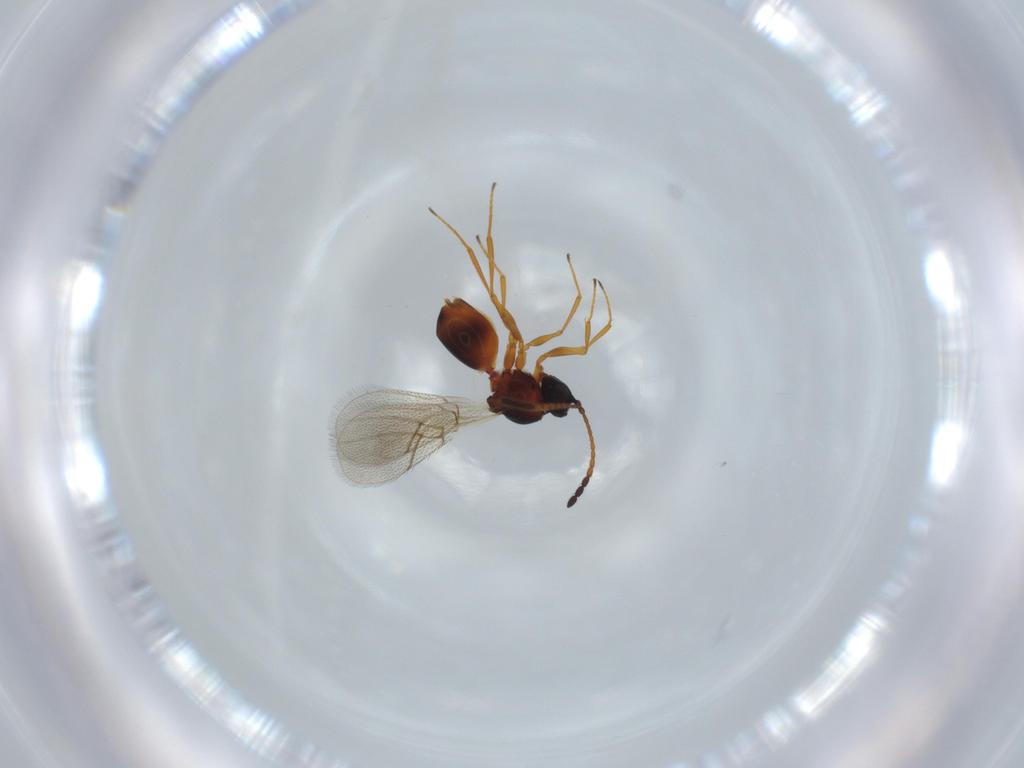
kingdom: Animalia
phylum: Arthropoda
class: Insecta
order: Hymenoptera
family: Figitidae
